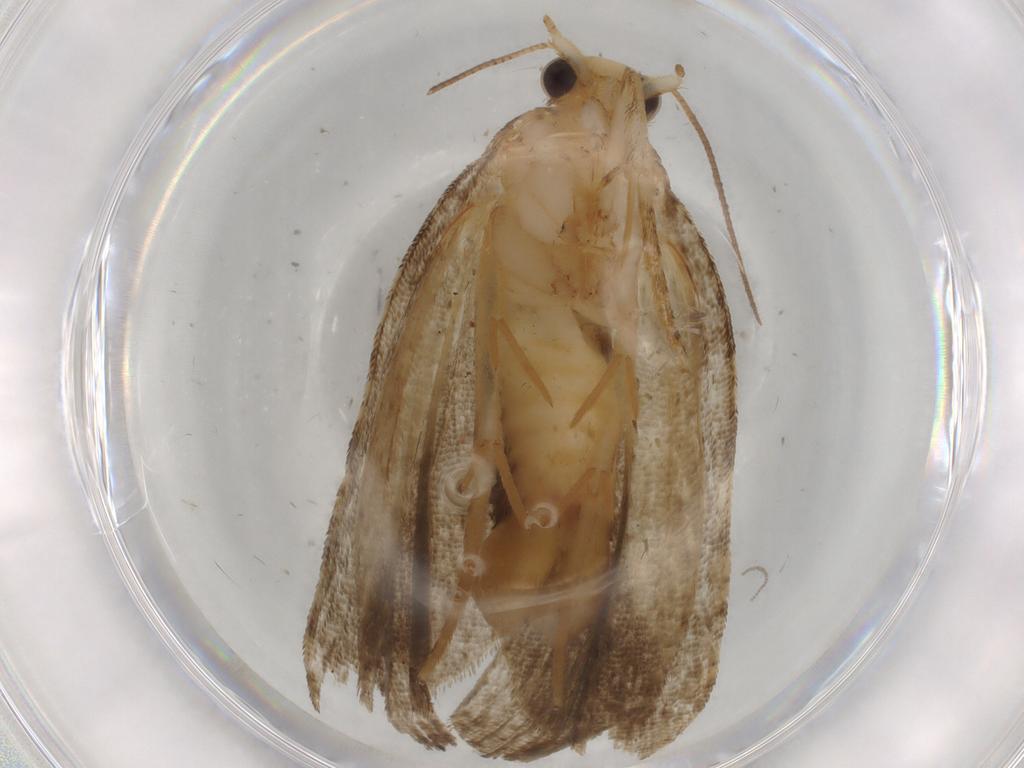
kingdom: Animalia
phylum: Arthropoda
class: Insecta
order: Lepidoptera
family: Tortricidae
